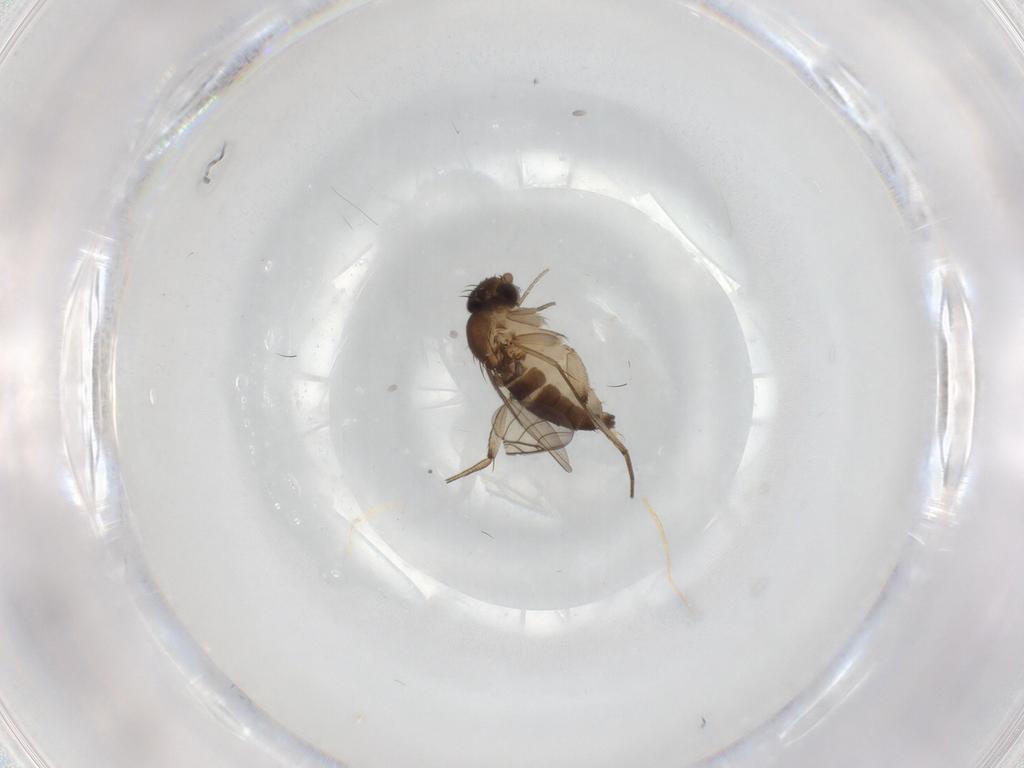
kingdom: Animalia
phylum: Arthropoda
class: Insecta
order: Diptera
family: Phoridae
